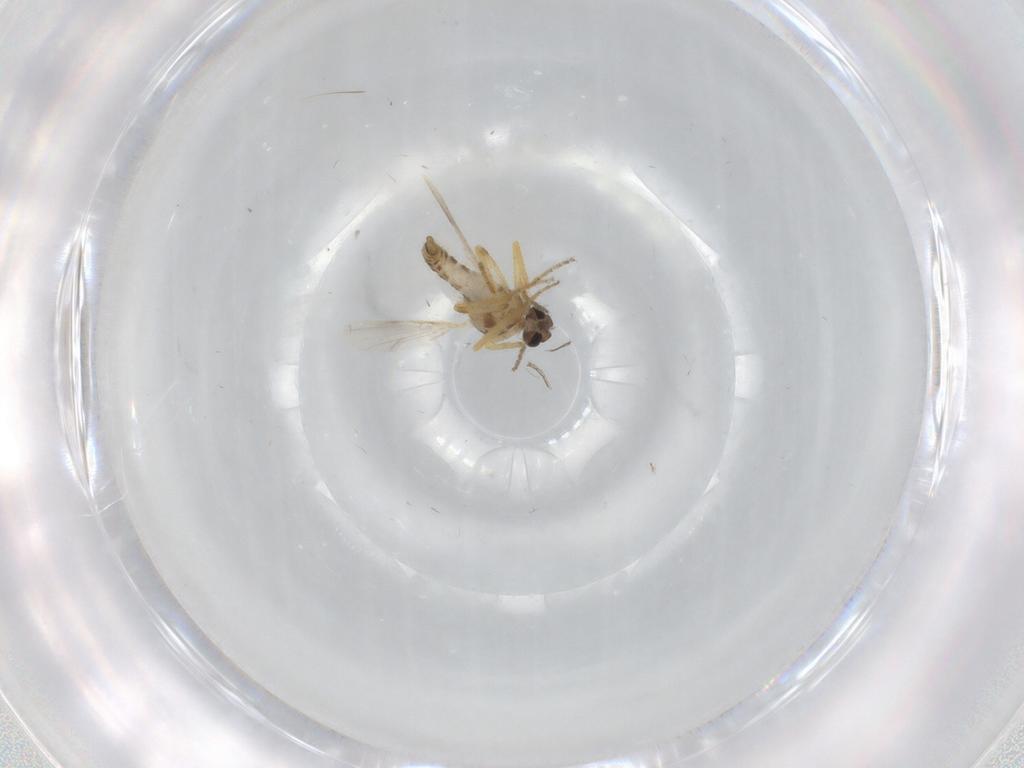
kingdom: Animalia
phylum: Arthropoda
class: Insecta
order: Diptera
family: Ceratopogonidae
